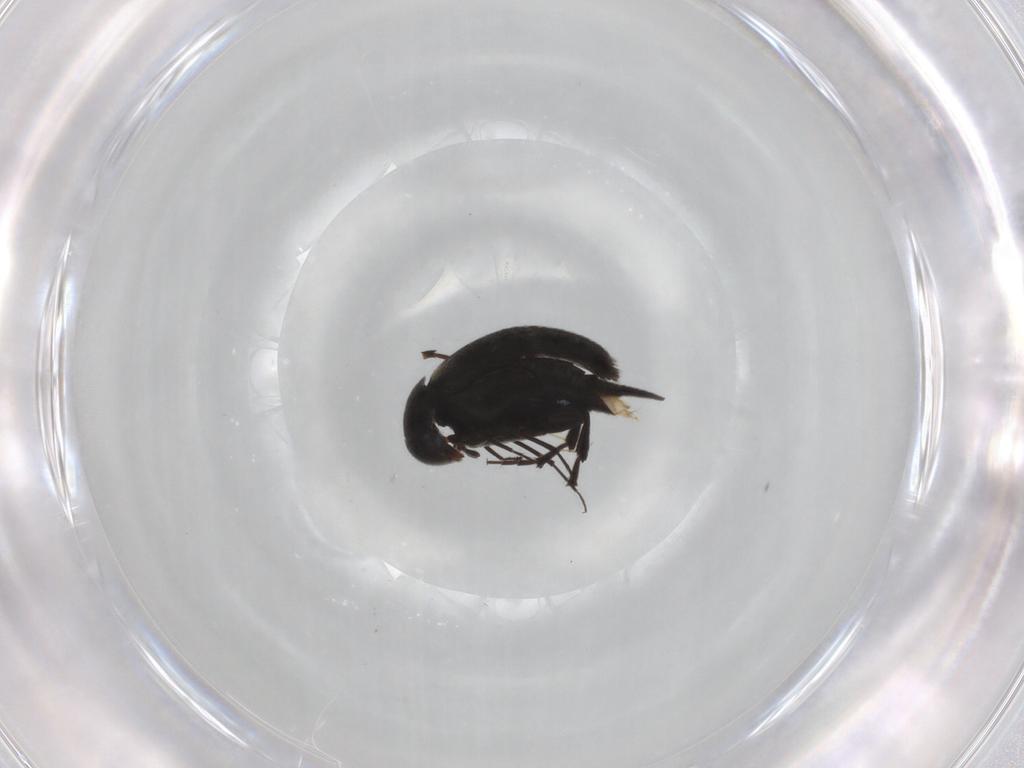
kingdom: Animalia
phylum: Arthropoda
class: Insecta
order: Coleoptera
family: Mordellidae
